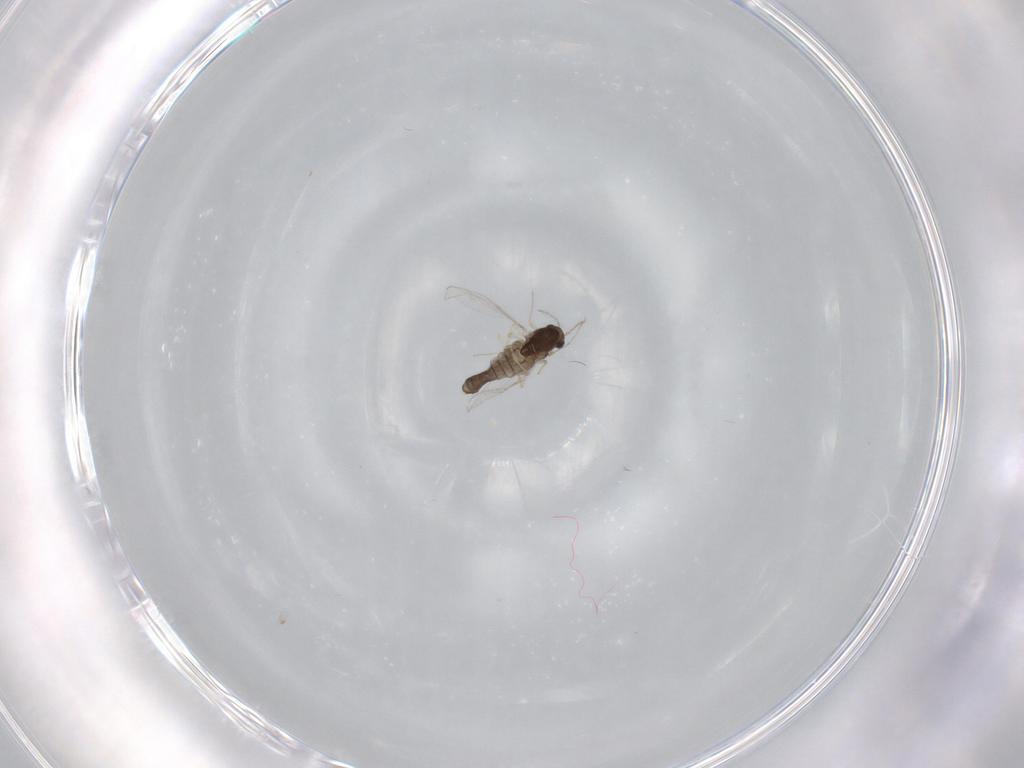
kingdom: Animalia
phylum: Arthropoda
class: Insecta
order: Diptera
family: Chironomidae
